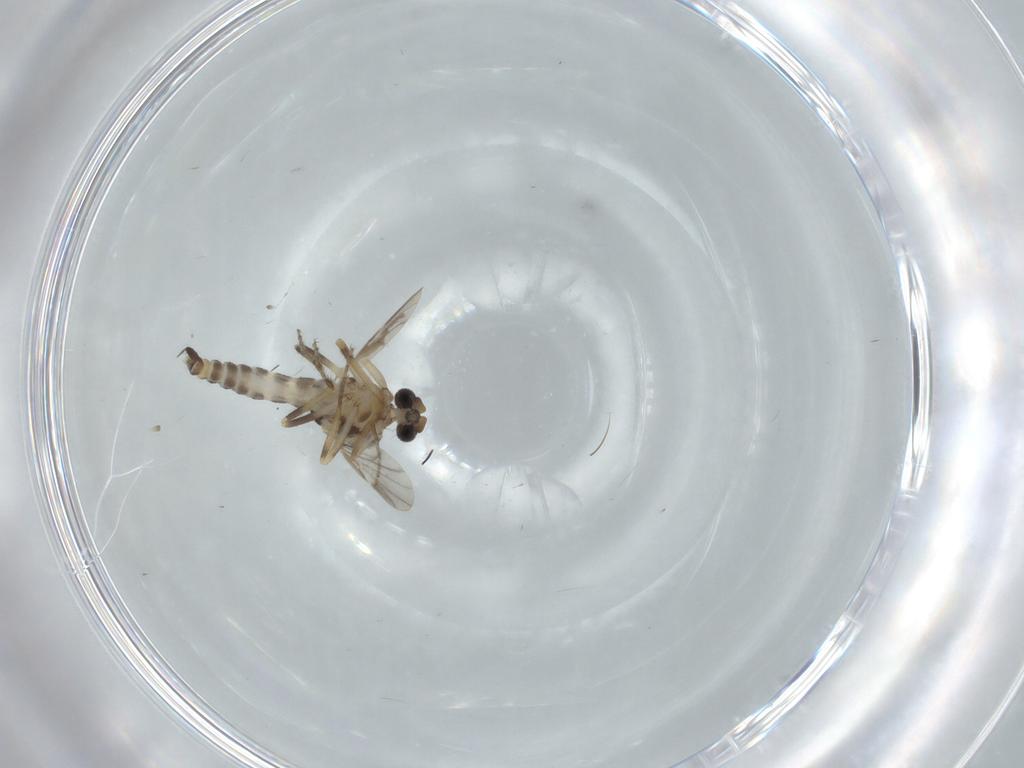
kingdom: Animalia
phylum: Arthropoda
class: Insecta
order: Diptera
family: Ceratopogonidae
